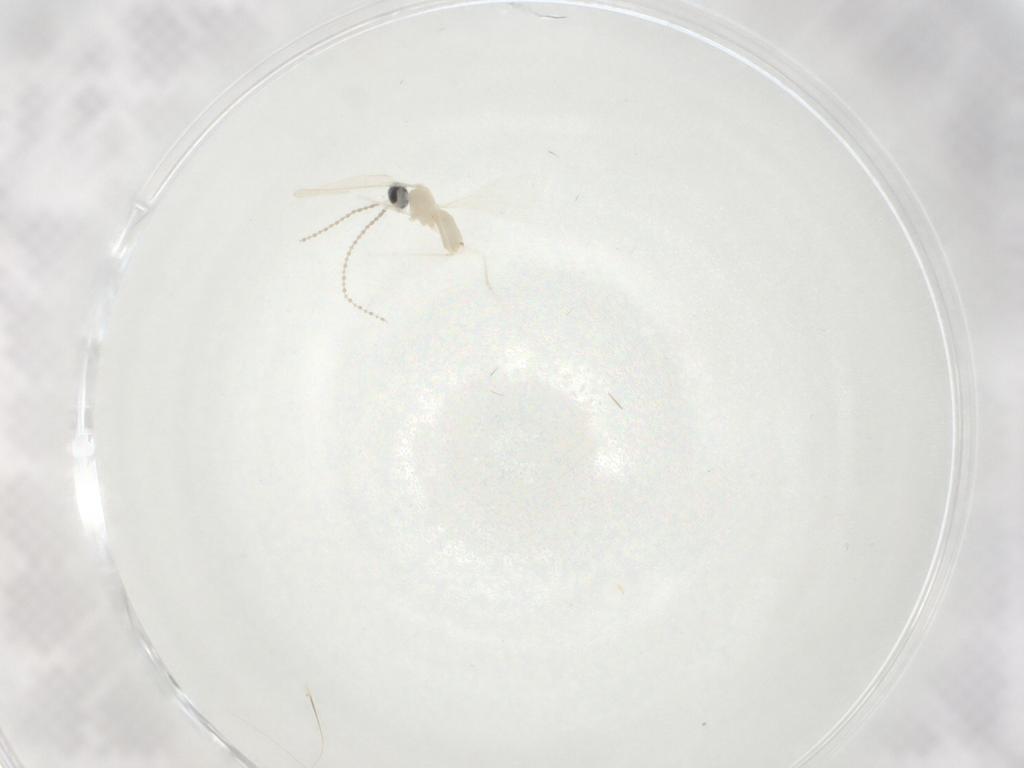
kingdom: Animalia
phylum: Arthropoda
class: Insecta
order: Diptera
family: Cecidomyiidae
